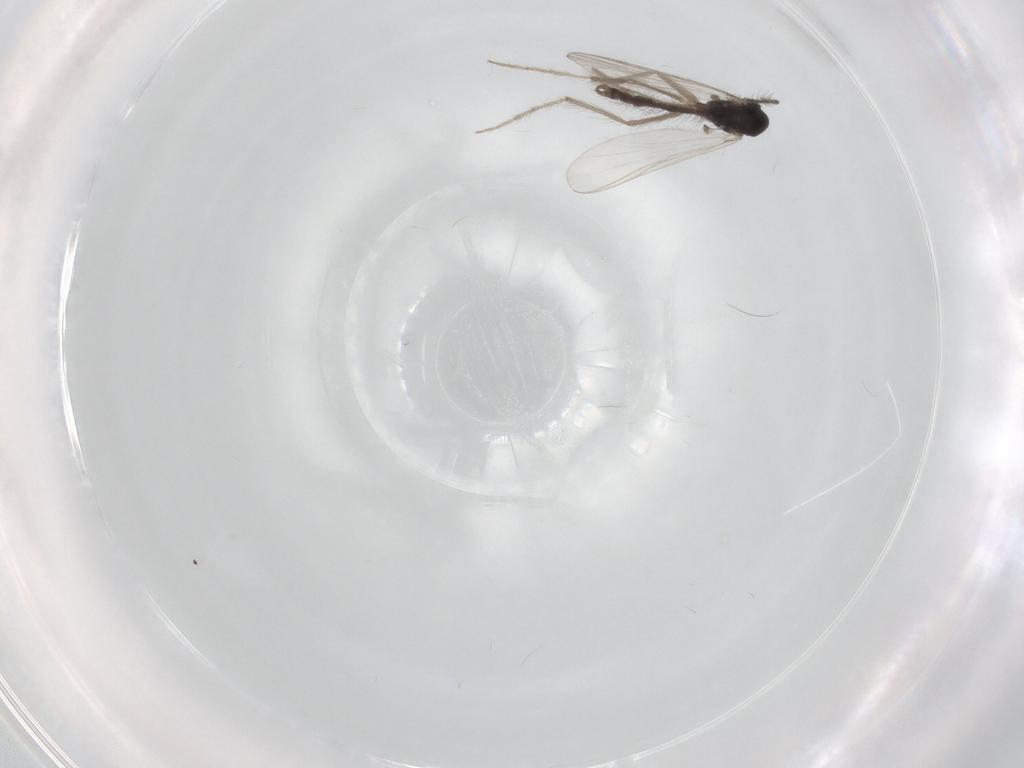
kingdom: Animalia
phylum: Arthropoda
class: Insecta
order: Diptera
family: Chironomidae
